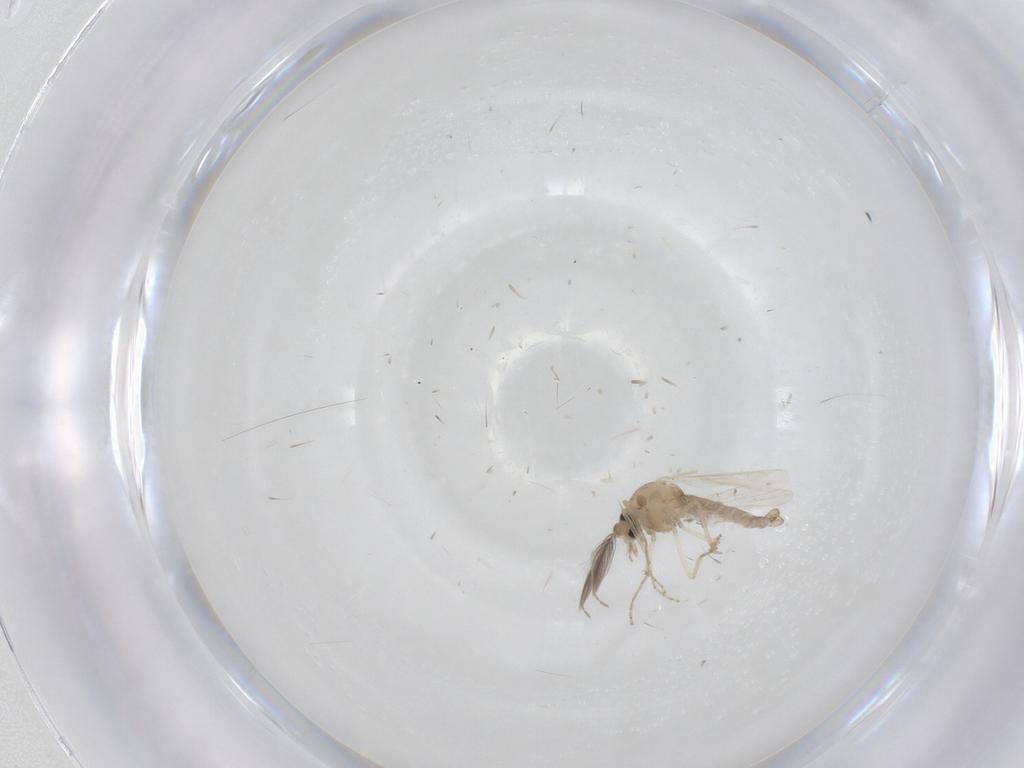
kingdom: Animalia
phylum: Arthropoda
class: Insecta
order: Diptera
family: Ceratopogonidae
